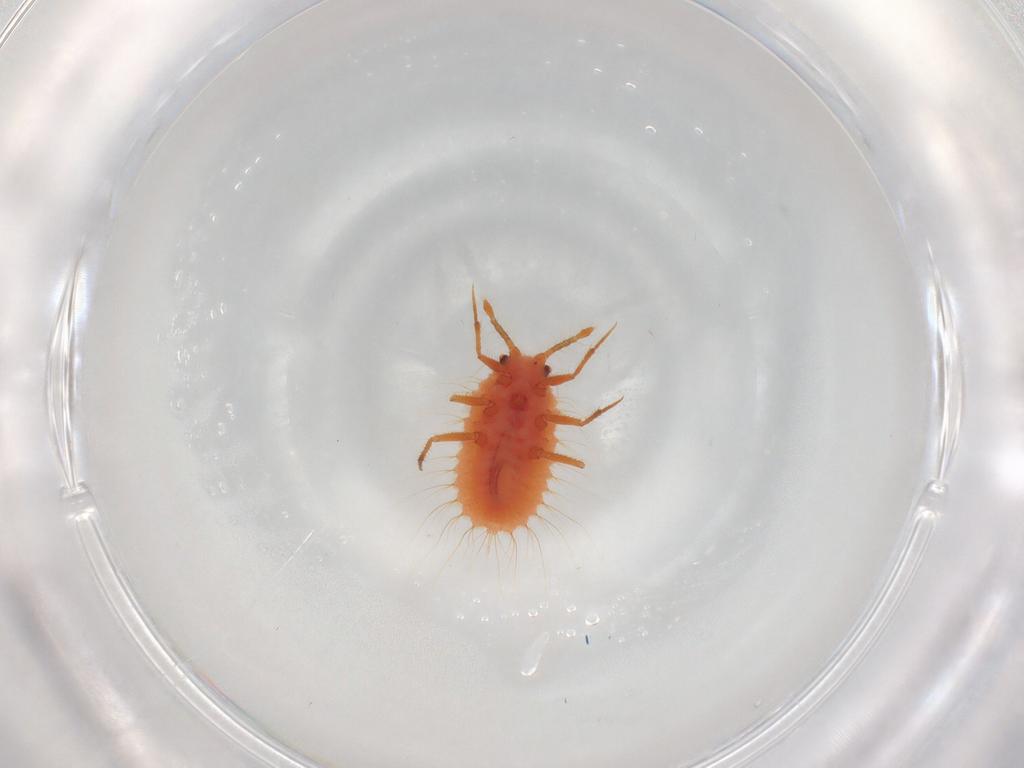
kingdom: Animalia
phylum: Arthropoda
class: Insecta
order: Hemiptera
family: Coccoidea_incertae_sedis
